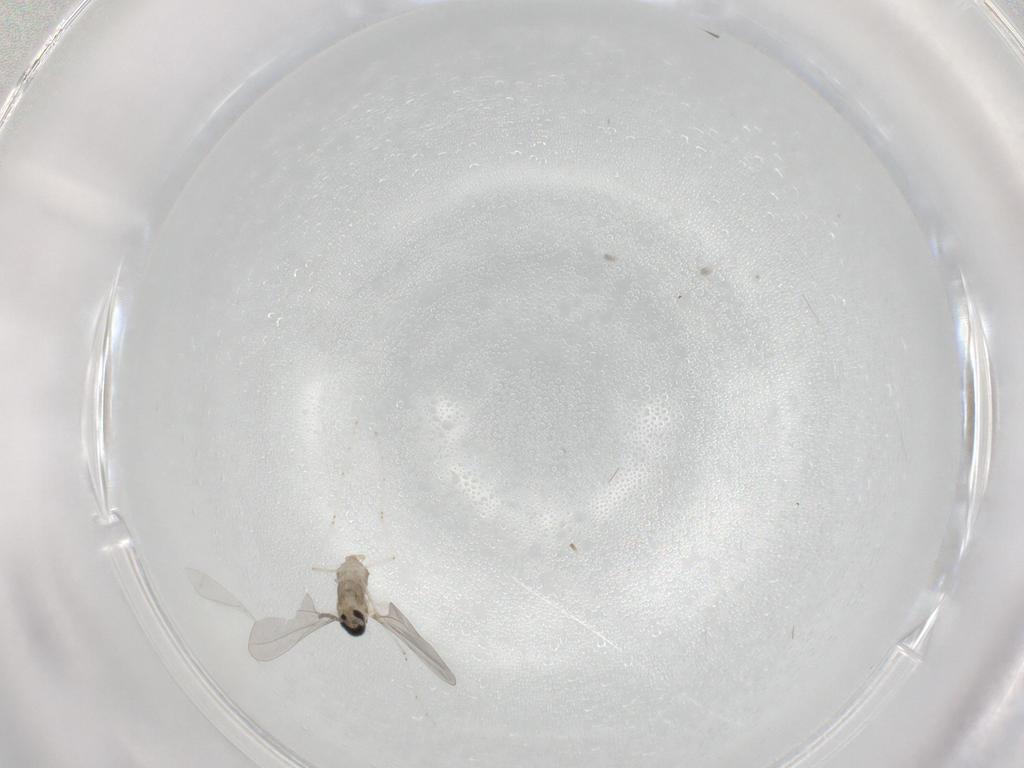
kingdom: Animalia
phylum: Arthropoda
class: Insecta
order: Diptera
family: Cecidomyiidae
